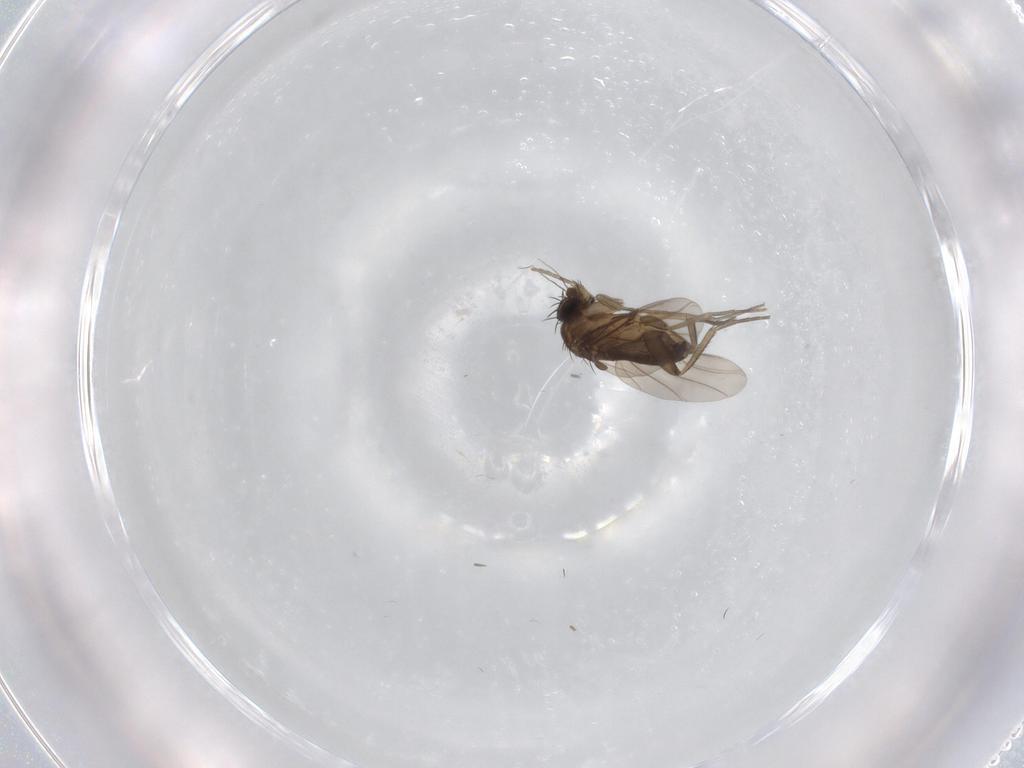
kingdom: Animalia
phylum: Arthropoda
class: Insecta
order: Diptera
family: Phoridae
